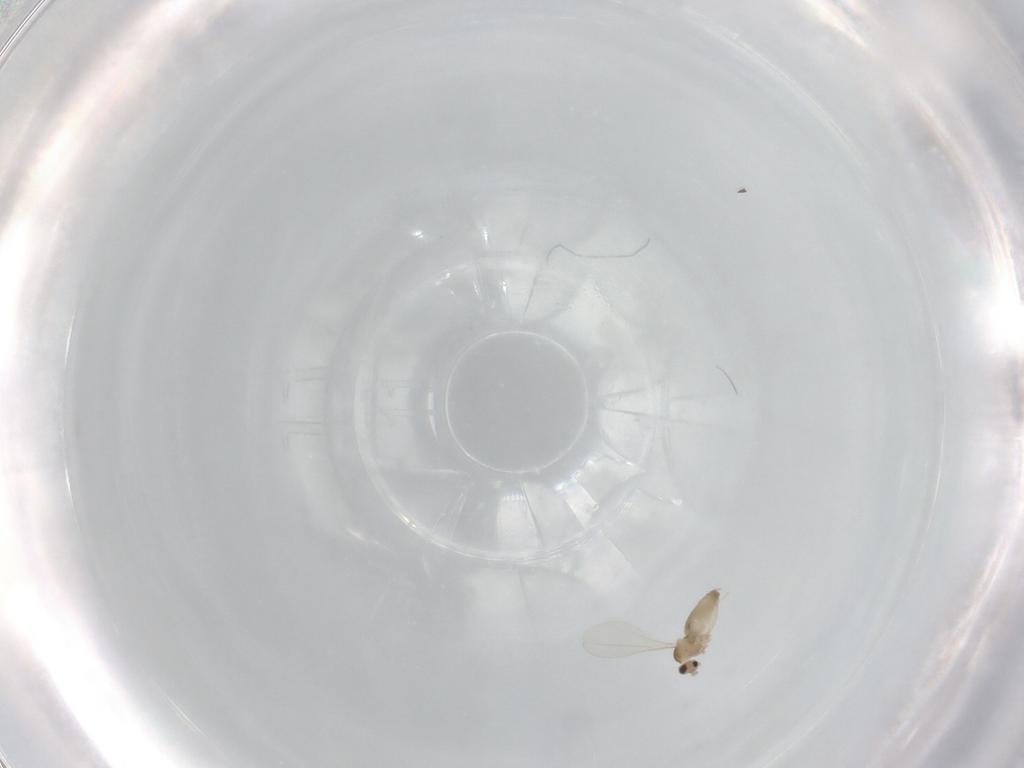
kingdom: Animalia
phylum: Arthropoda
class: Insecta
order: Diptera
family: Cecidomyiidae
